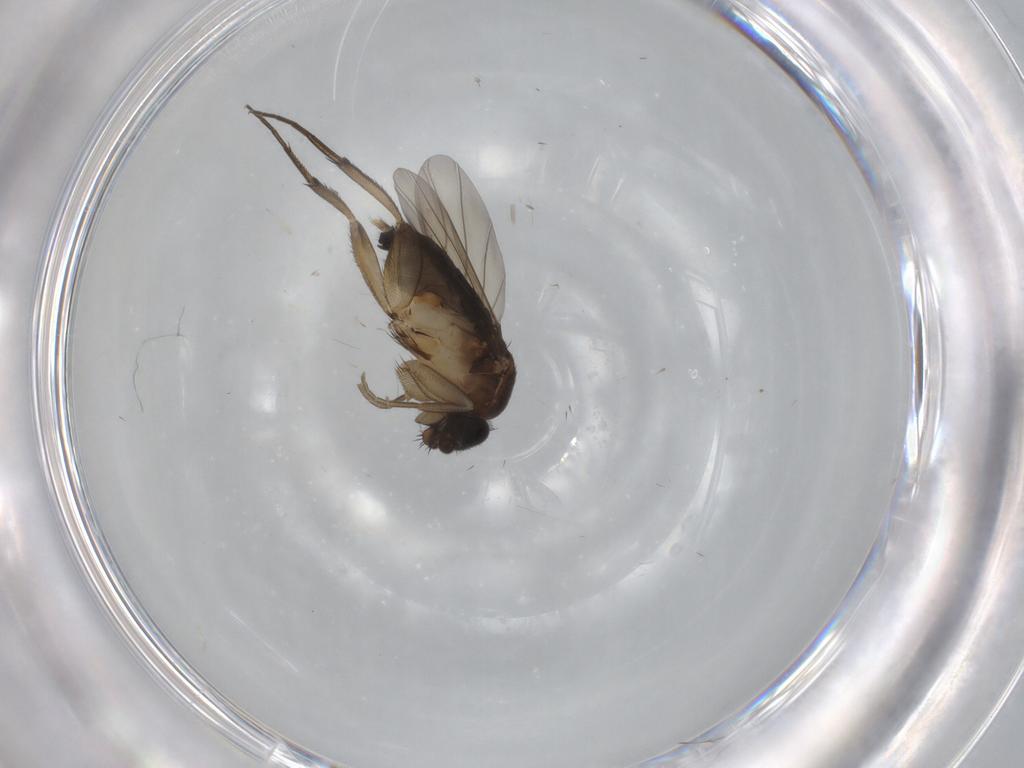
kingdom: Animalia
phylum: Arthropoda
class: Insecta
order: Diptera
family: Phoridae
